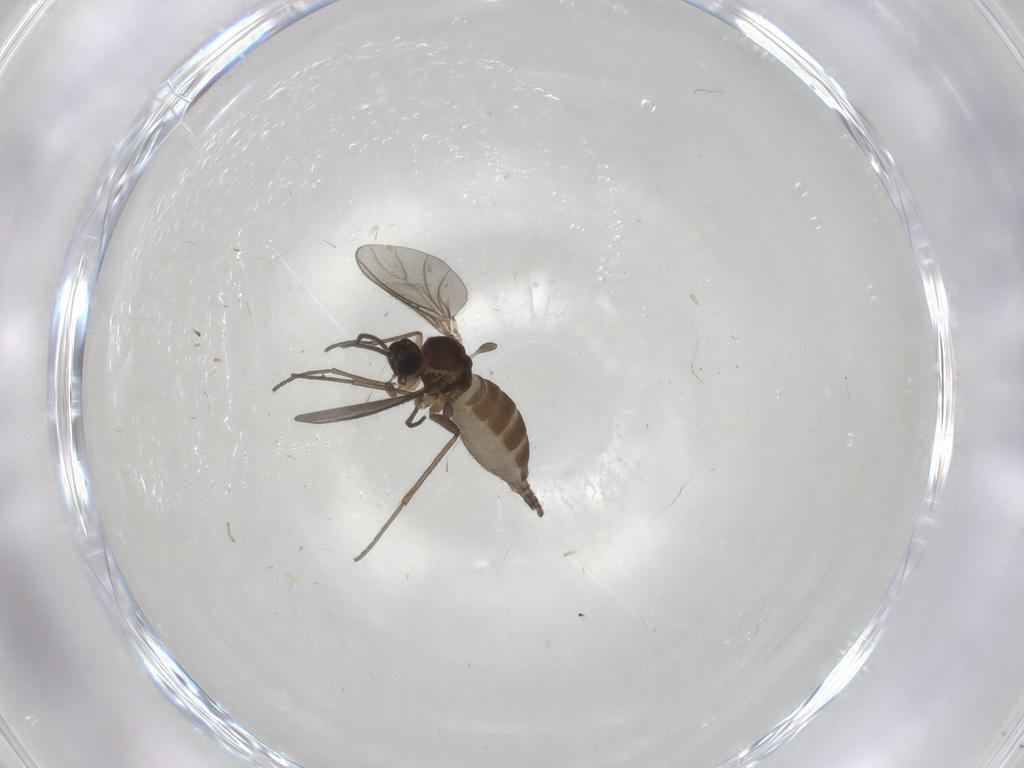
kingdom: Animalia
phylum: Arthropoda
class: Insecta
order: Diptera
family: Sciaridae
